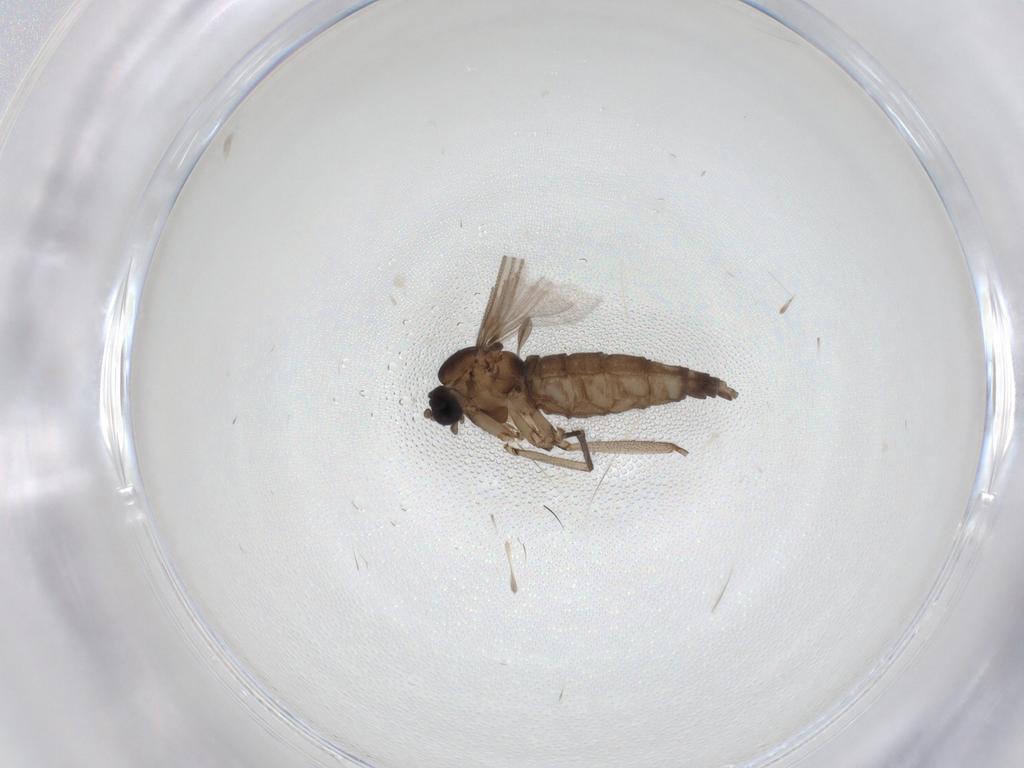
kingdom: Animalia
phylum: Arthropoda
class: Insecta
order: Diptera
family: Sciaridae
